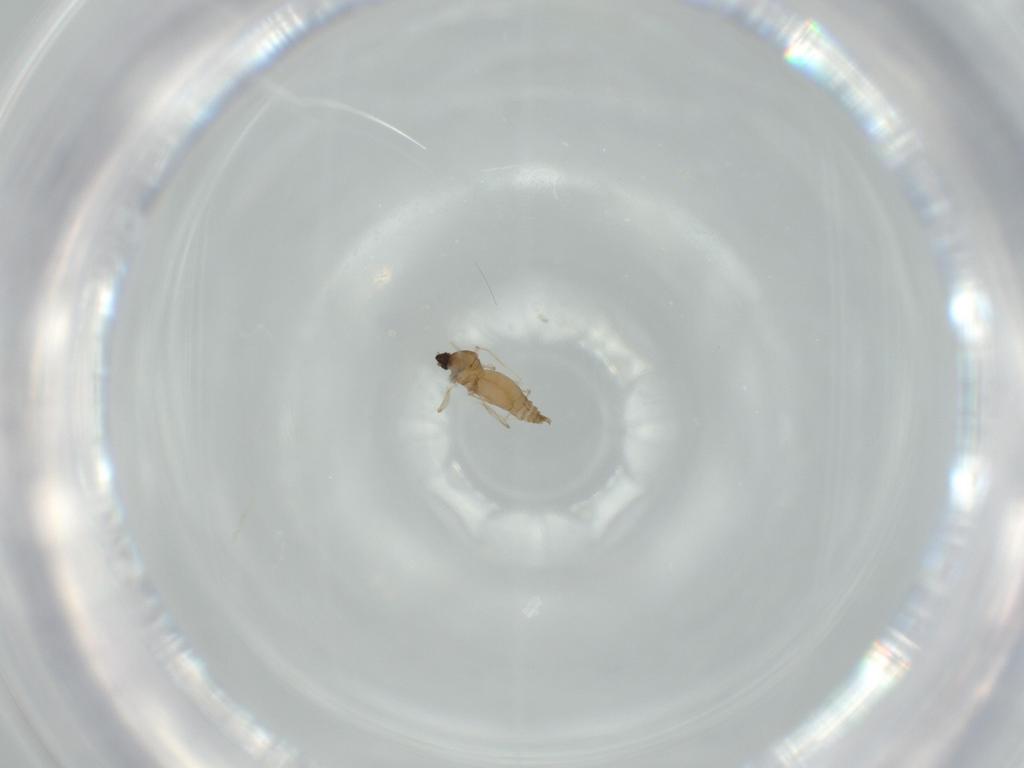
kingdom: Animalia
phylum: Arthropoda
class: Insecta
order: Diptera
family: Cecidomyiidae
